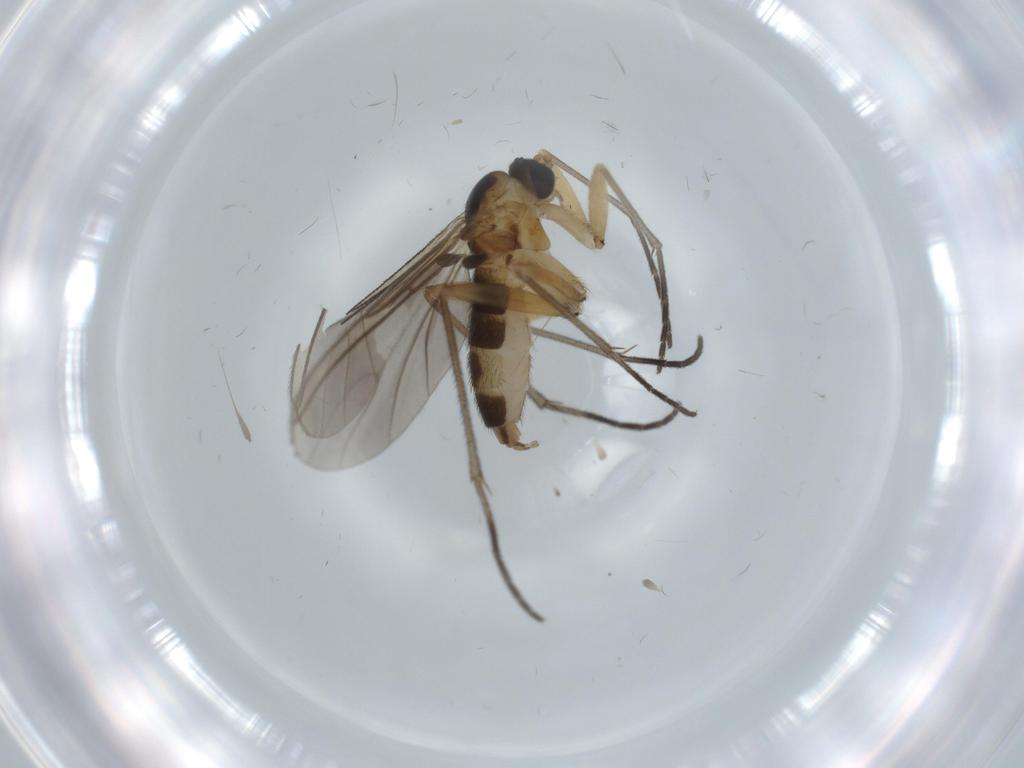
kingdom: Animalia
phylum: Arthropoda
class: Insecta
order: Diptera
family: Sciaridae
